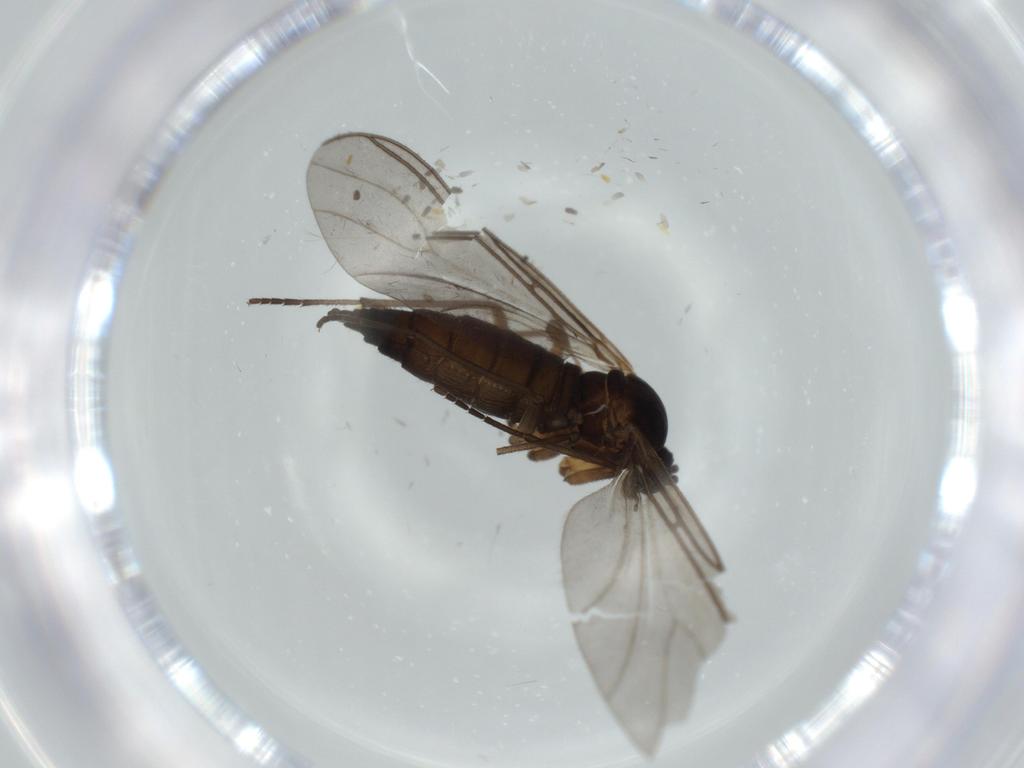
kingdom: Animalia
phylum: Arthropoda
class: Insecta
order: Diptera
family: Sciaridae
